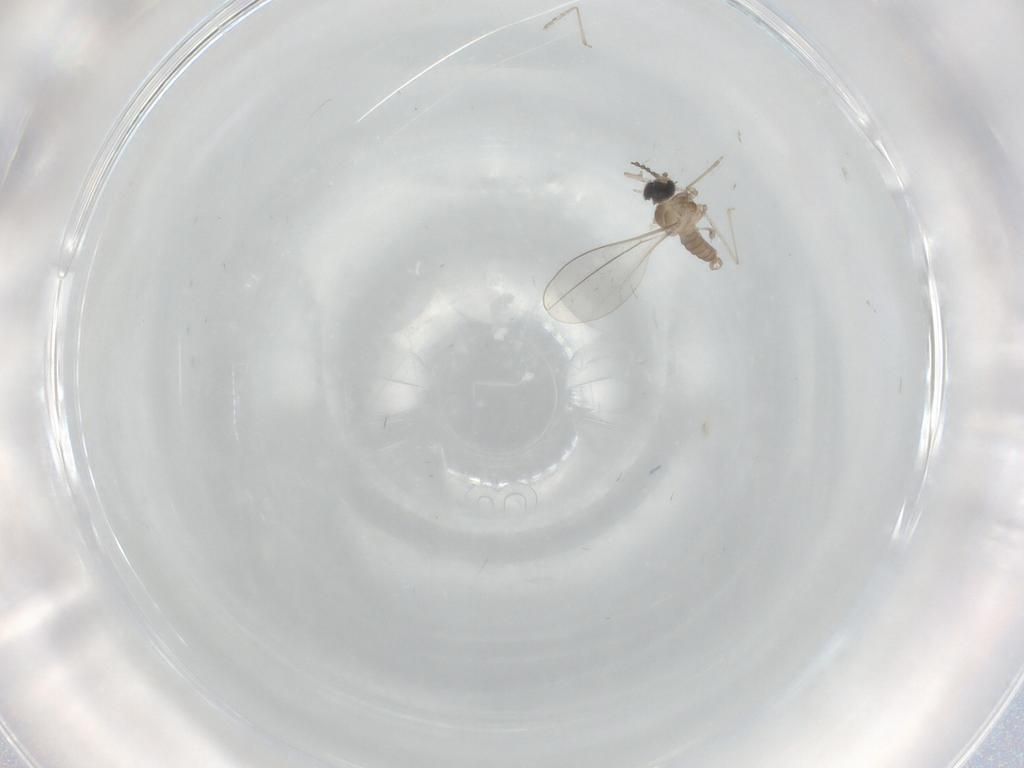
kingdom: Animalia
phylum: Arthropoda
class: Insecta
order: Diptera
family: Cecidomyiidae
